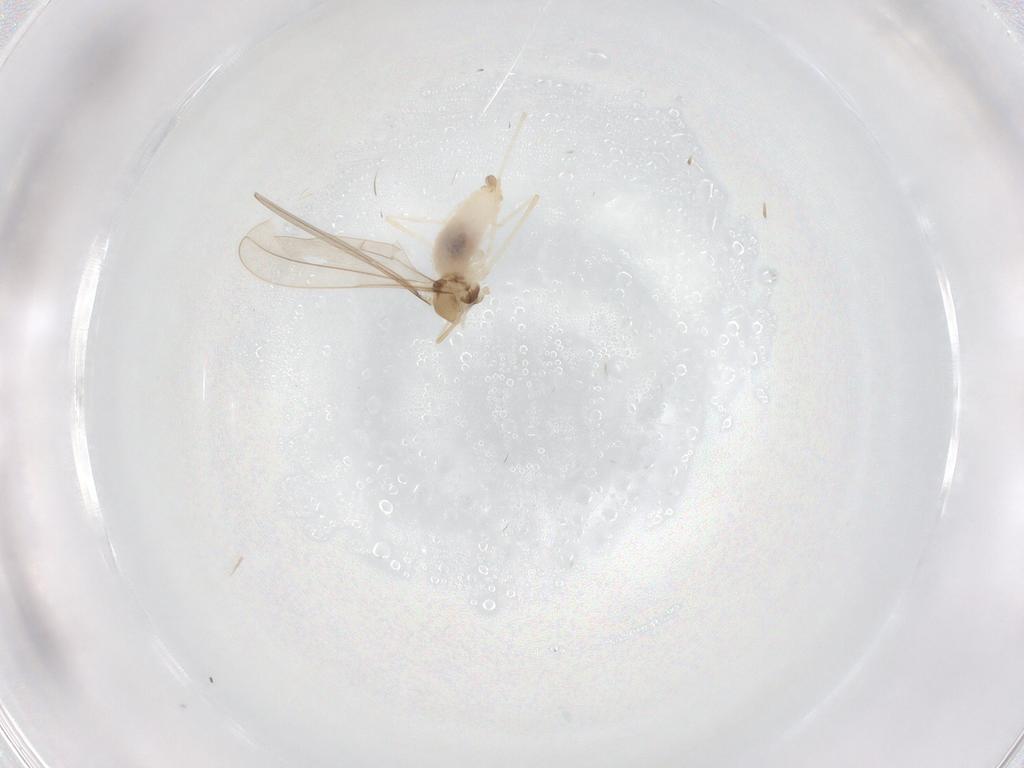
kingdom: Animalia
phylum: Arthropoda
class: Insecta
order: Diptera
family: Cecidomyiidae
